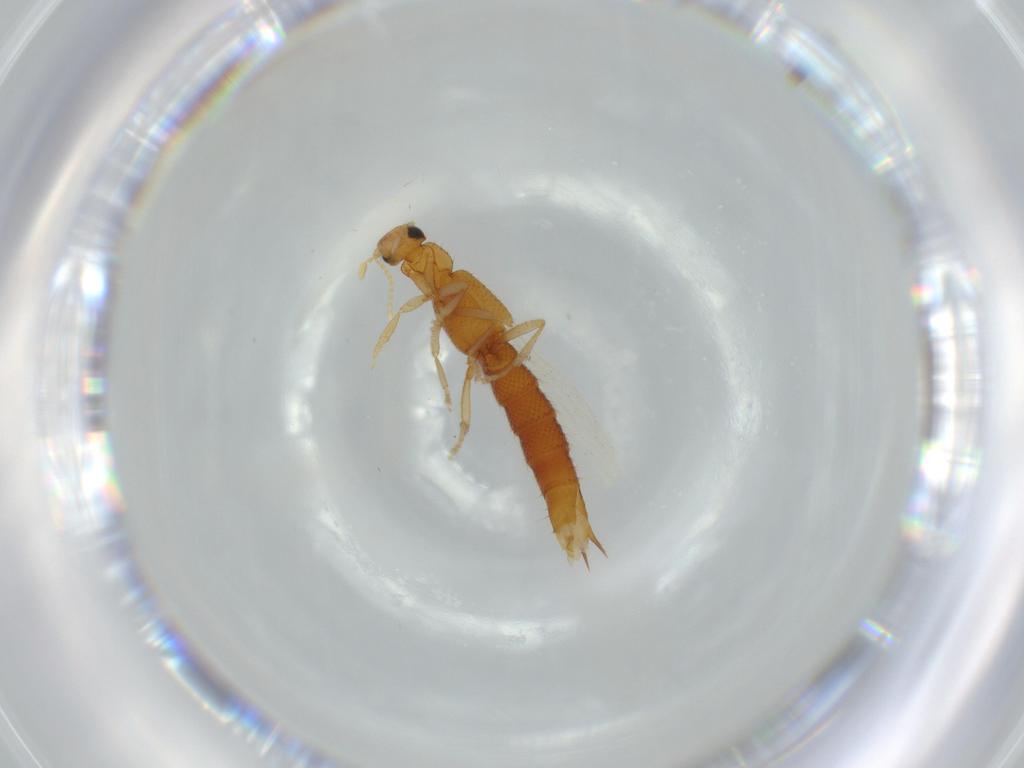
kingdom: Animalia
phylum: Arthropoda
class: Insecta
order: Coleoptera
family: Staphylinidae
